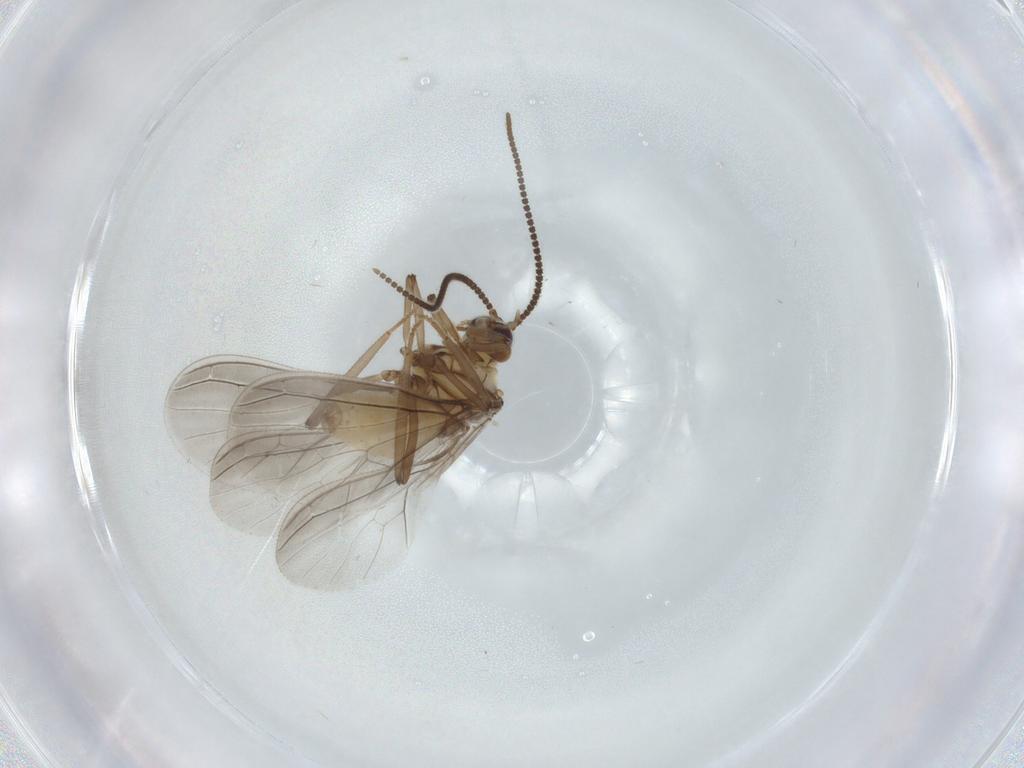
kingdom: Animalia
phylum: Arthropoda
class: Insecta
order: Neuroptera
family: Coniopterygidae
